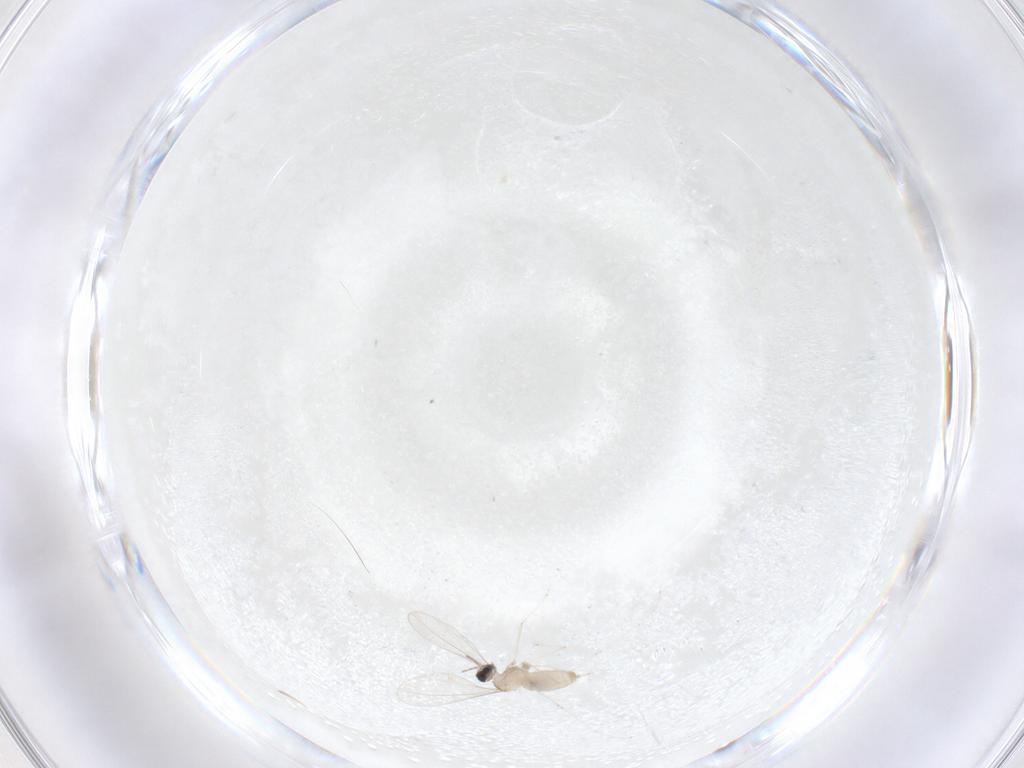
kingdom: Animalia
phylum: Arthropoda
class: Insecta
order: Diptera
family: Cecidomyiidae
